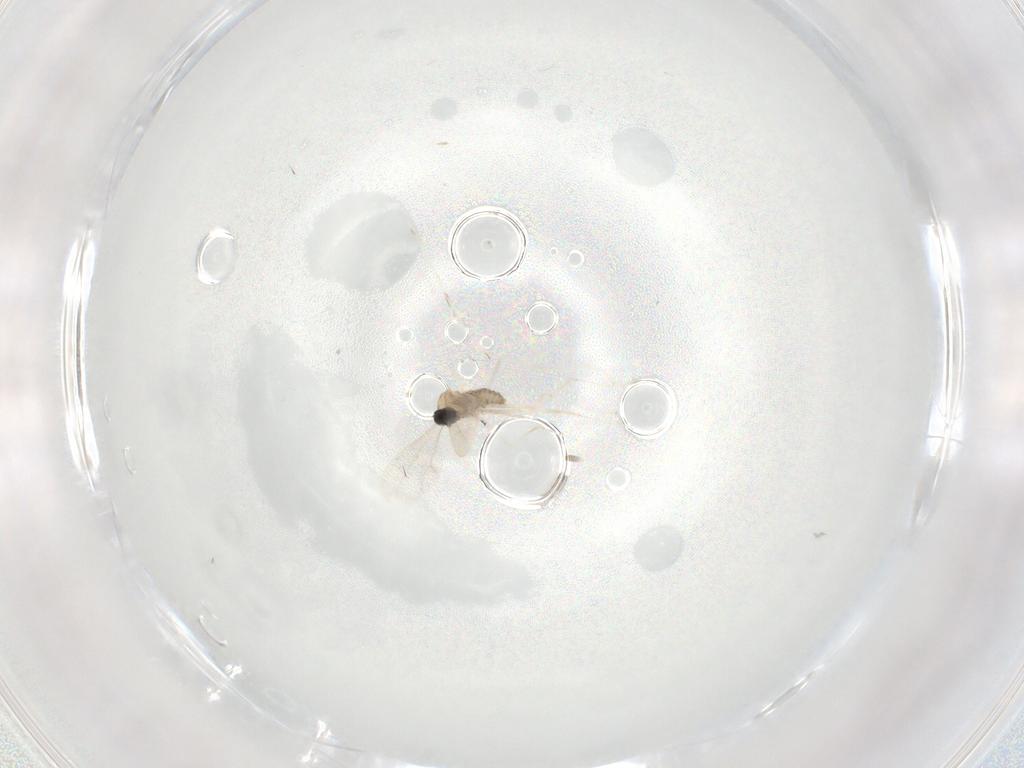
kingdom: Animalia
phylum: Arthropoda
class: Insecta
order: Diptera
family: Cecidomyiidae
